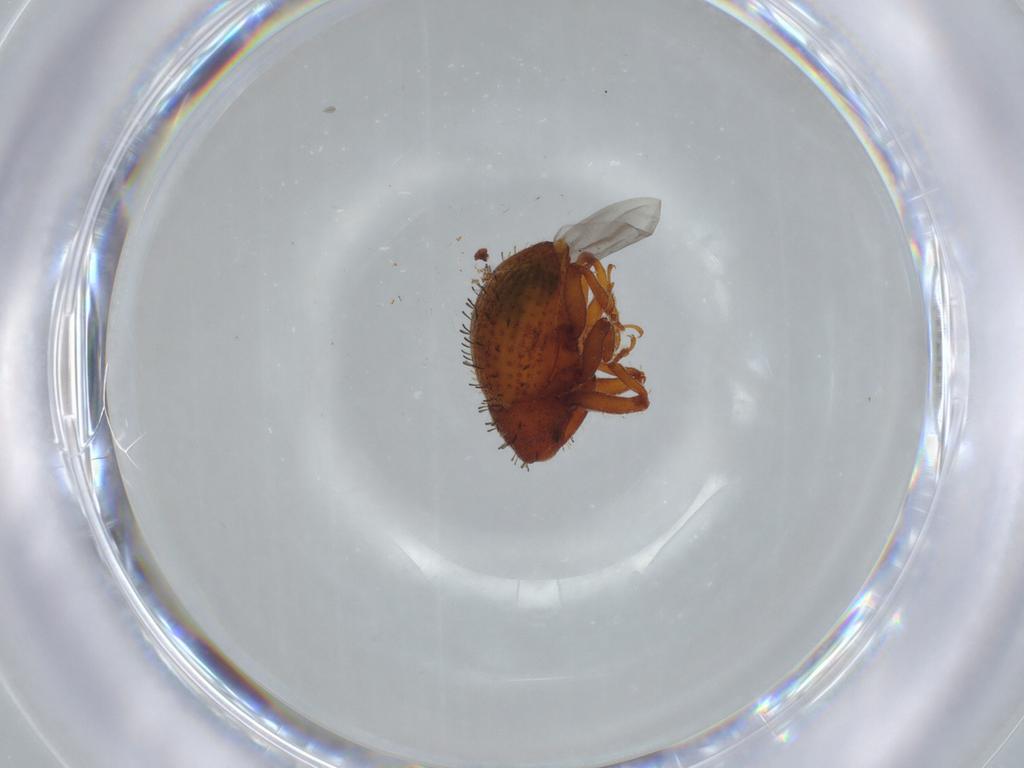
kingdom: Animalia
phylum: Arthropoda
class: Insecta
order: Coleoptera
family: Curculionidae
